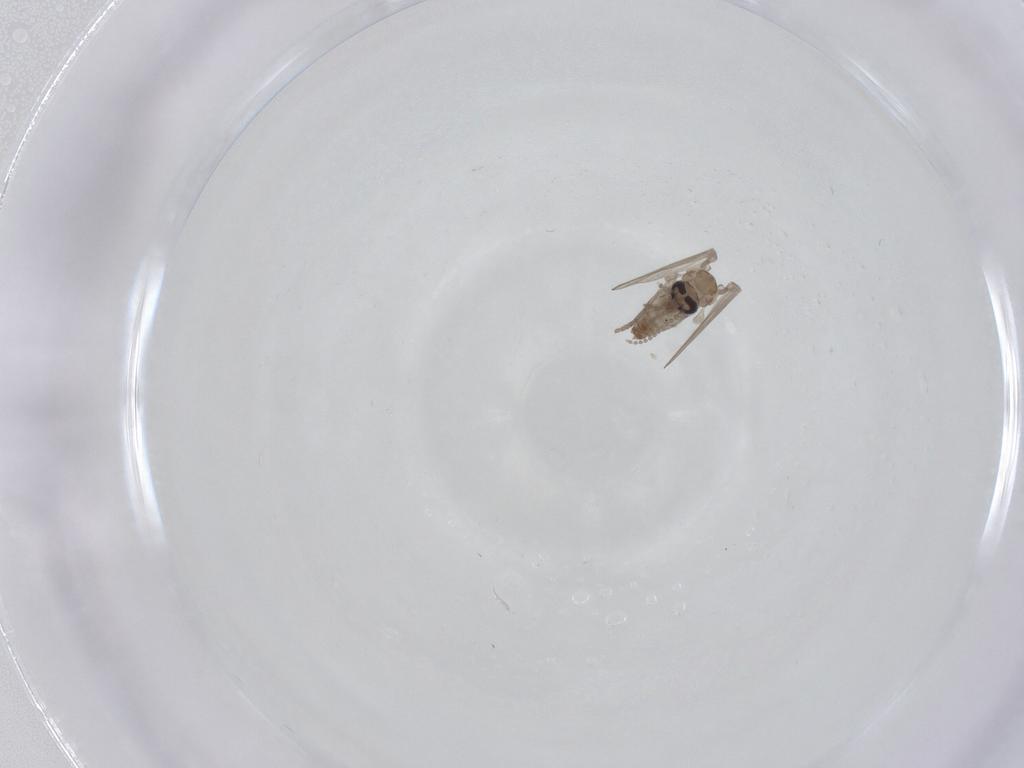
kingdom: Animalia
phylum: Arthropoda
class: Insecta
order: Diptera
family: Psychodidae
